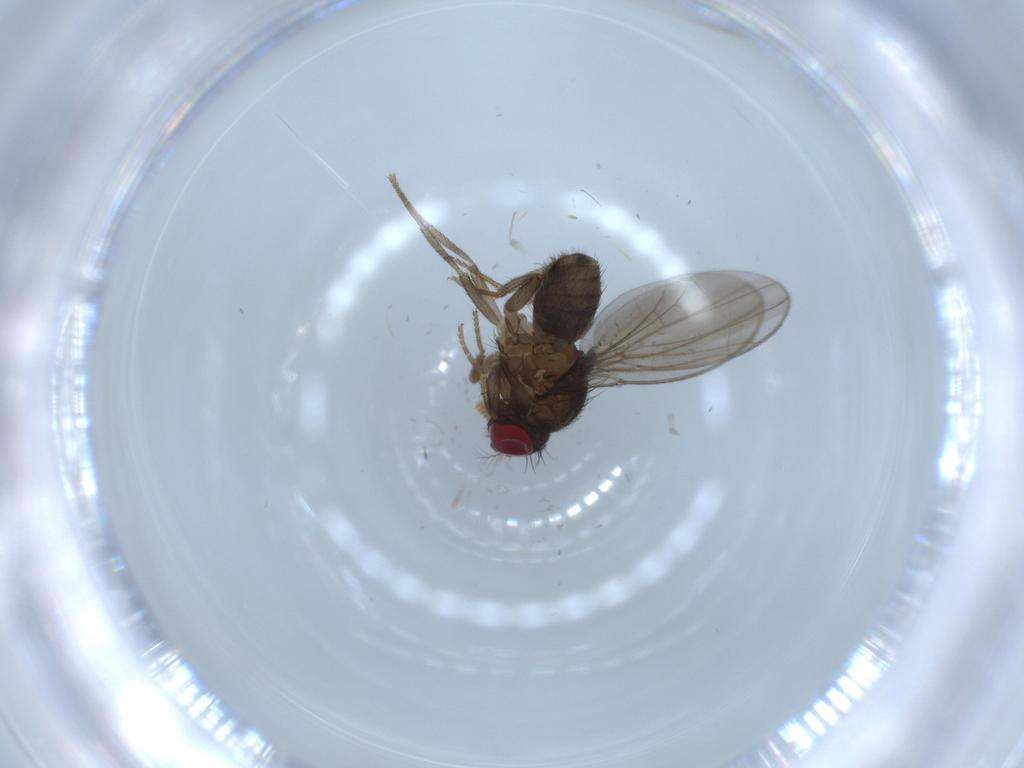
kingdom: Animalia
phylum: Arthropoda
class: Insecta
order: Diptera
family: Drosophilidae
